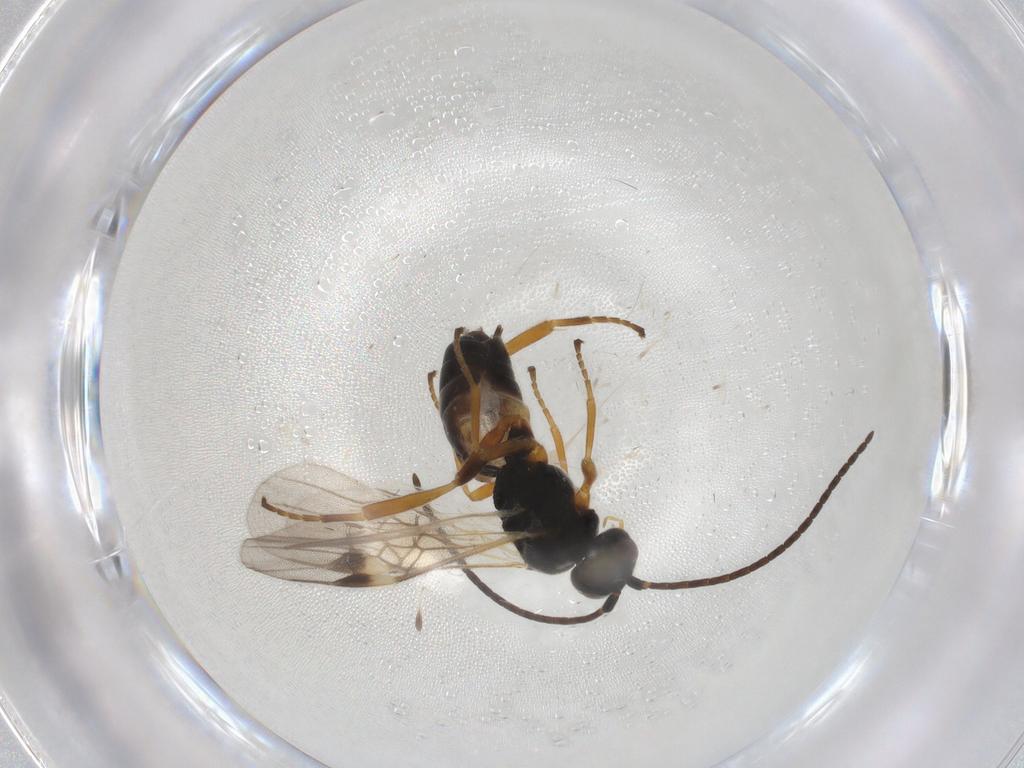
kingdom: Animalia
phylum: Arthropoda
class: Insecta
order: Hymenoptera
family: Braconidae
